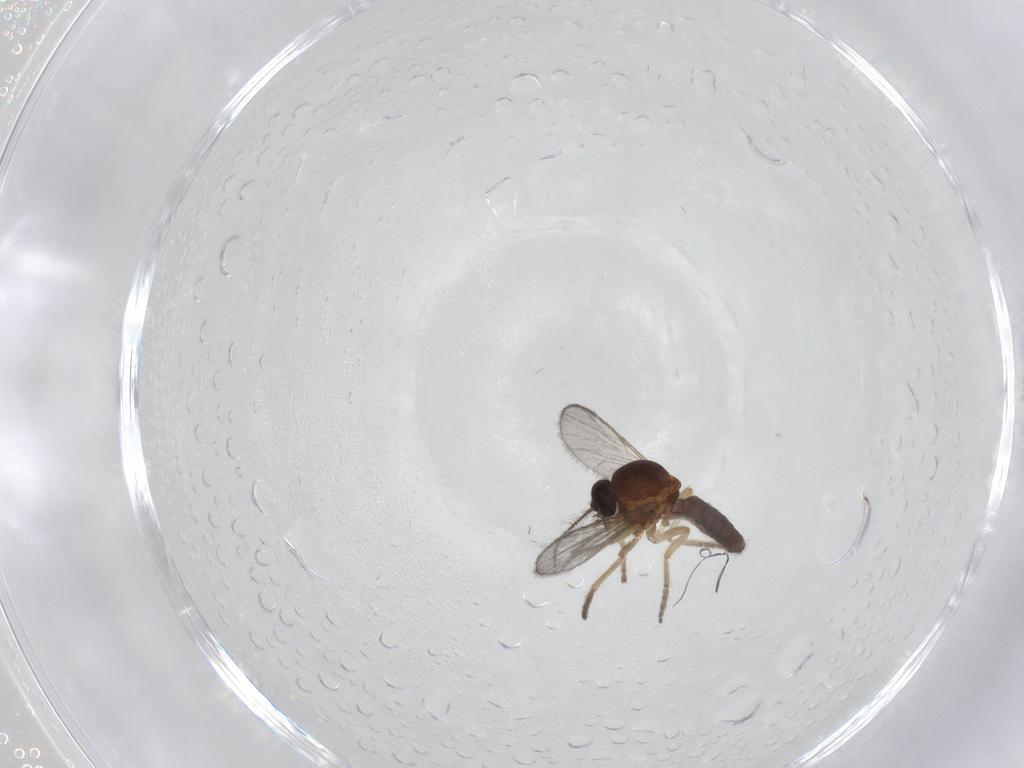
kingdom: Animalia
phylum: Arthropoda
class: Insecta
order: Diptera
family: Ceratopogonidae
